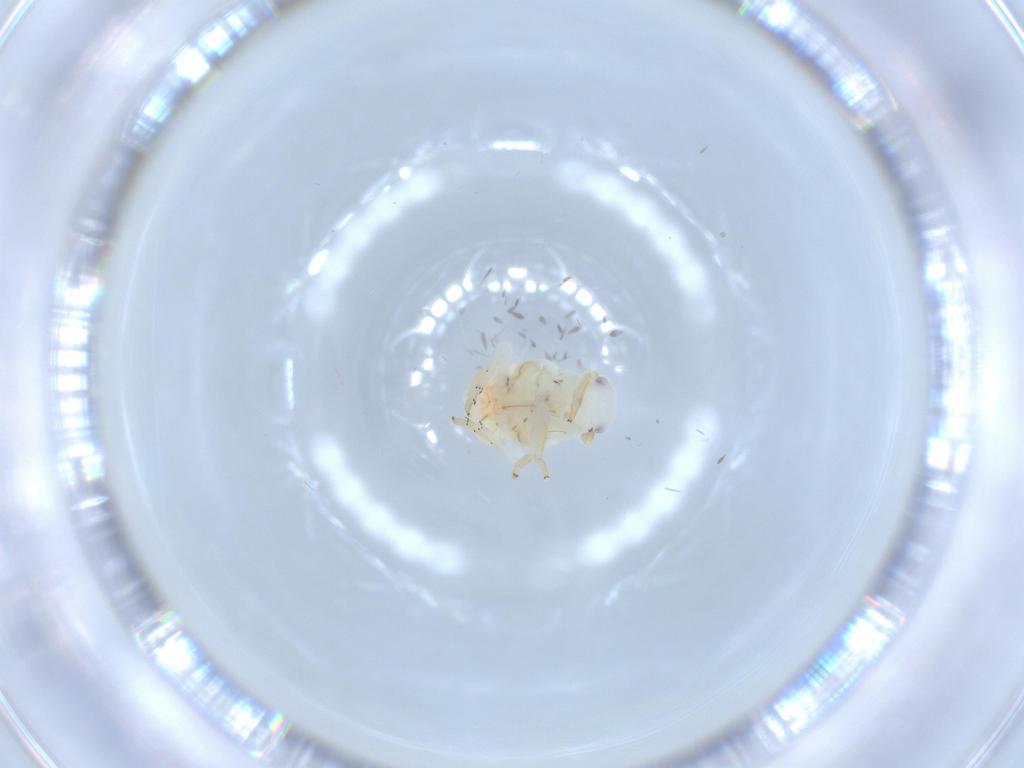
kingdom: Animalia
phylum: Arthropoda
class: Insecta
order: Hemiptera
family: Flatidae
